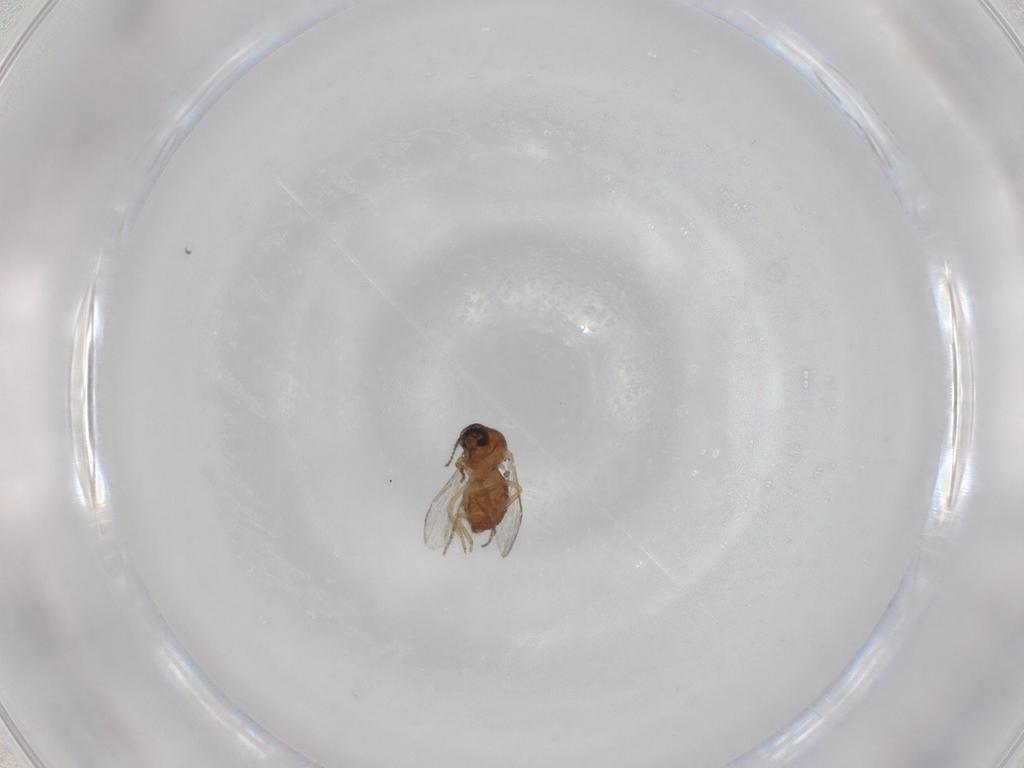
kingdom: Animalia
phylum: Arthropoda
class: Insecta
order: Diptera
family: Ceratopogonidae
